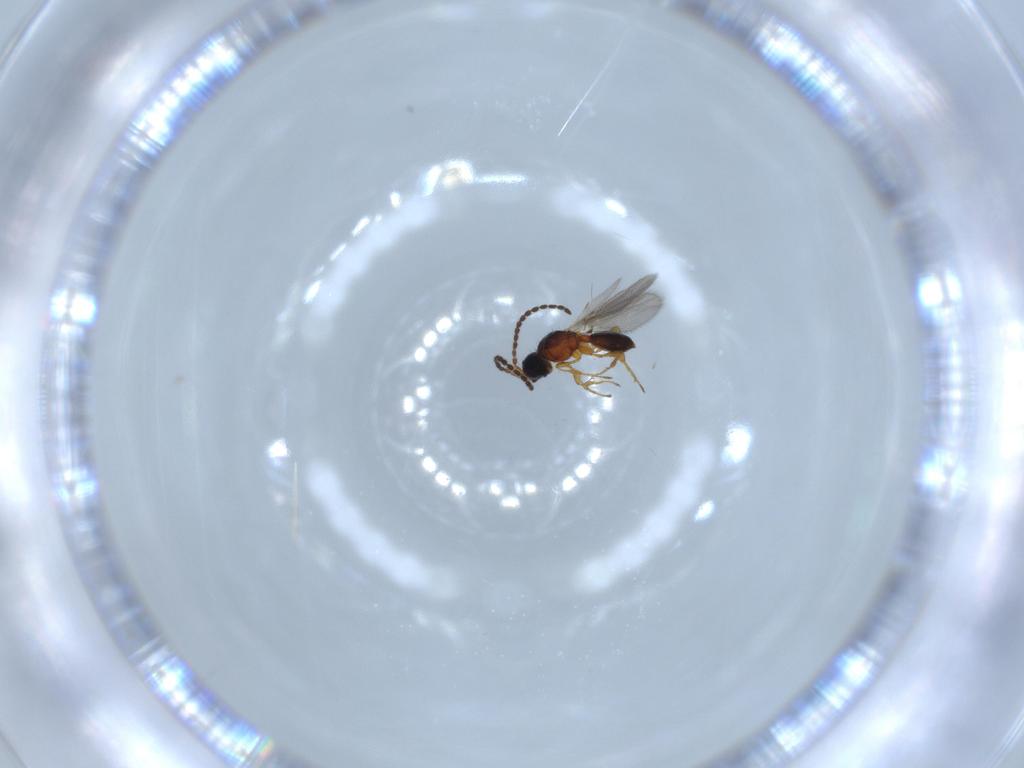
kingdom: Animalia
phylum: Arthropoda
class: Insecta
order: Hymenoptera
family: Diapriidae
